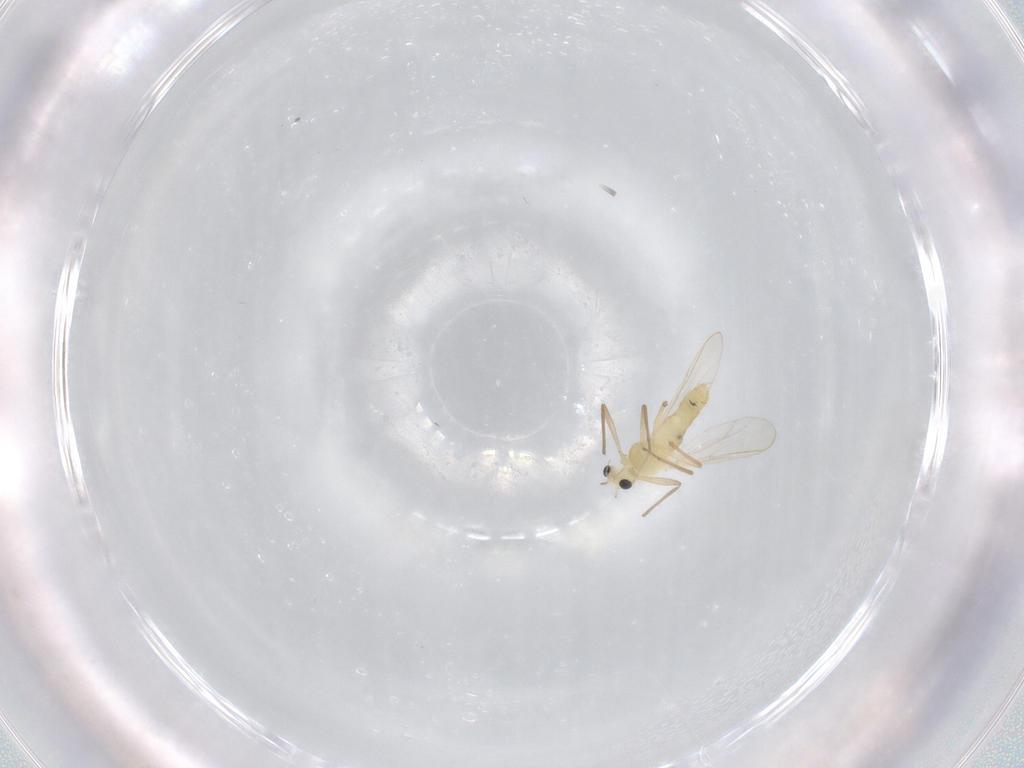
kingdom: Animalia
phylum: Arthropoda
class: Insecta
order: Diptera
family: Chironomidae
